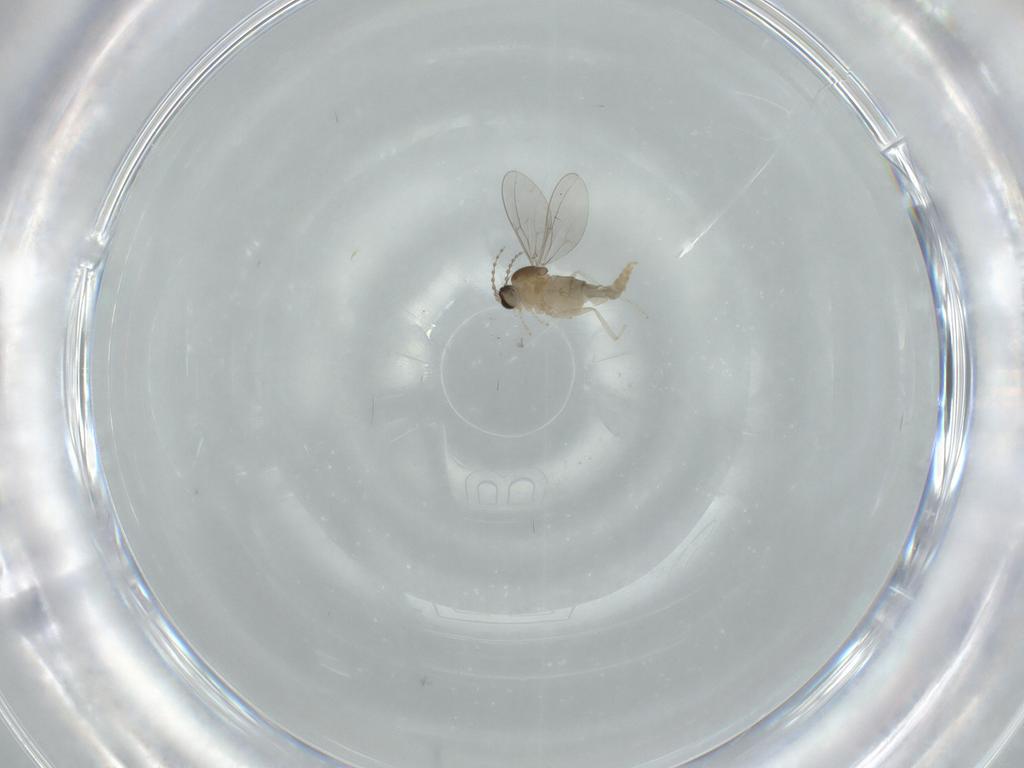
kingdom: Animalia
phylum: Arthropoda
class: Insecta
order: Diptera
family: Cecidomyiidae
